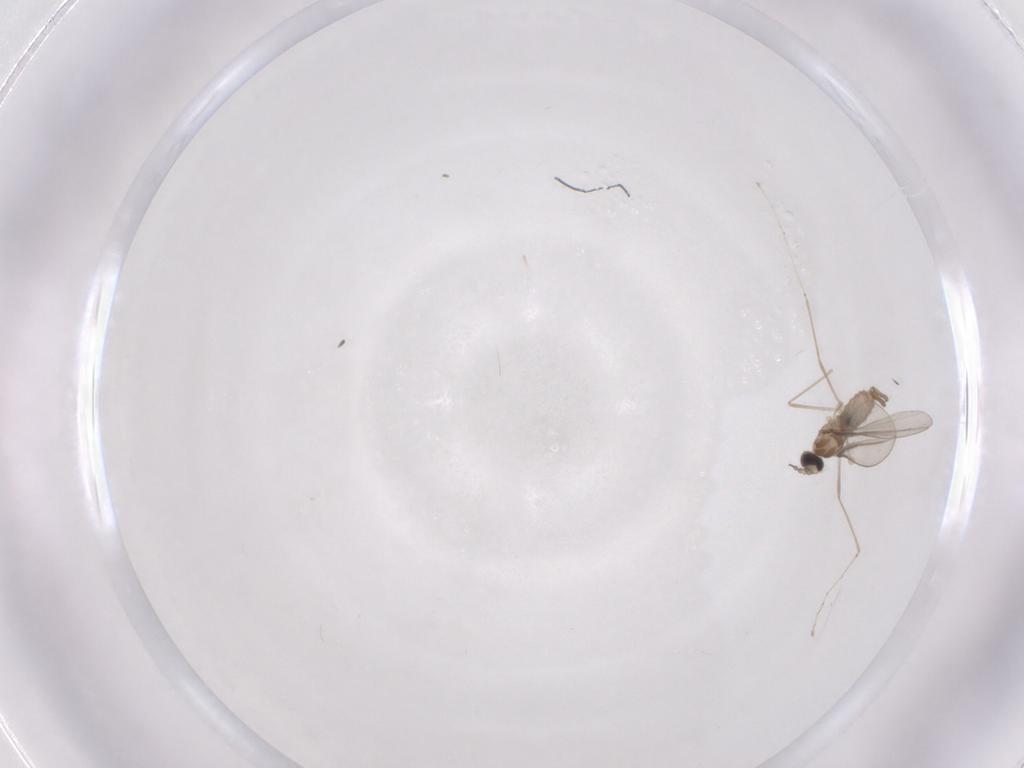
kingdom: Animalia
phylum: Arthropoda
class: Insecta
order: Diptera
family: Cecidomyiidae
